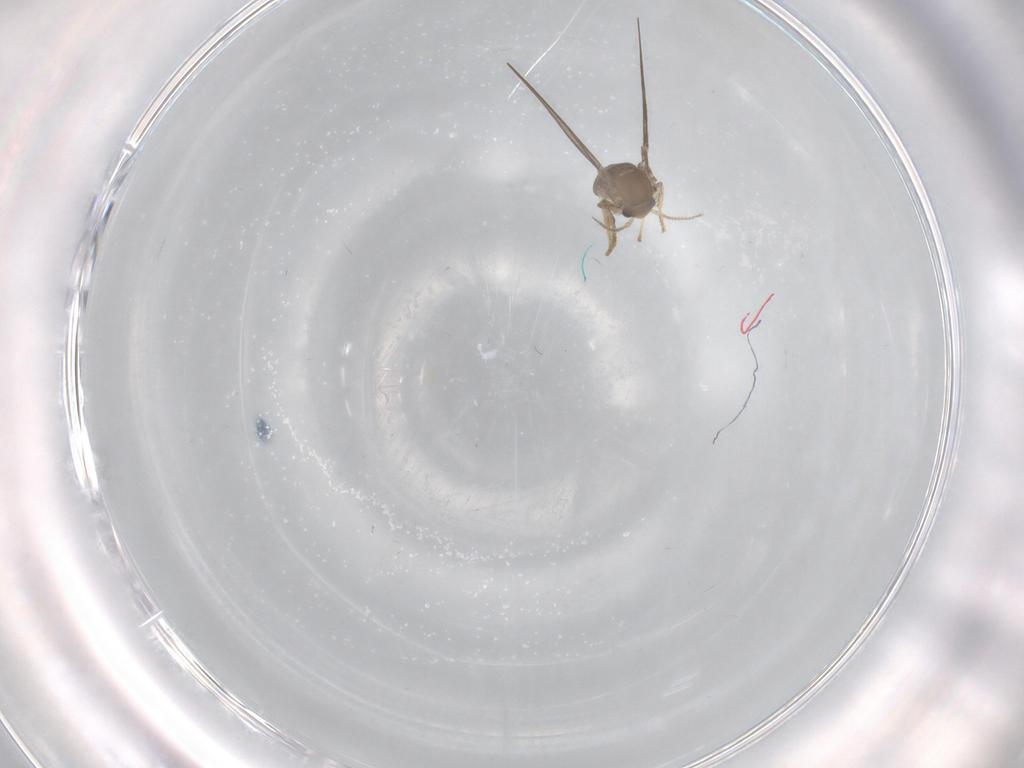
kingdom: Animalia
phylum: Arthropoda
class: Insecta
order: Diptera
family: Psychodidae
